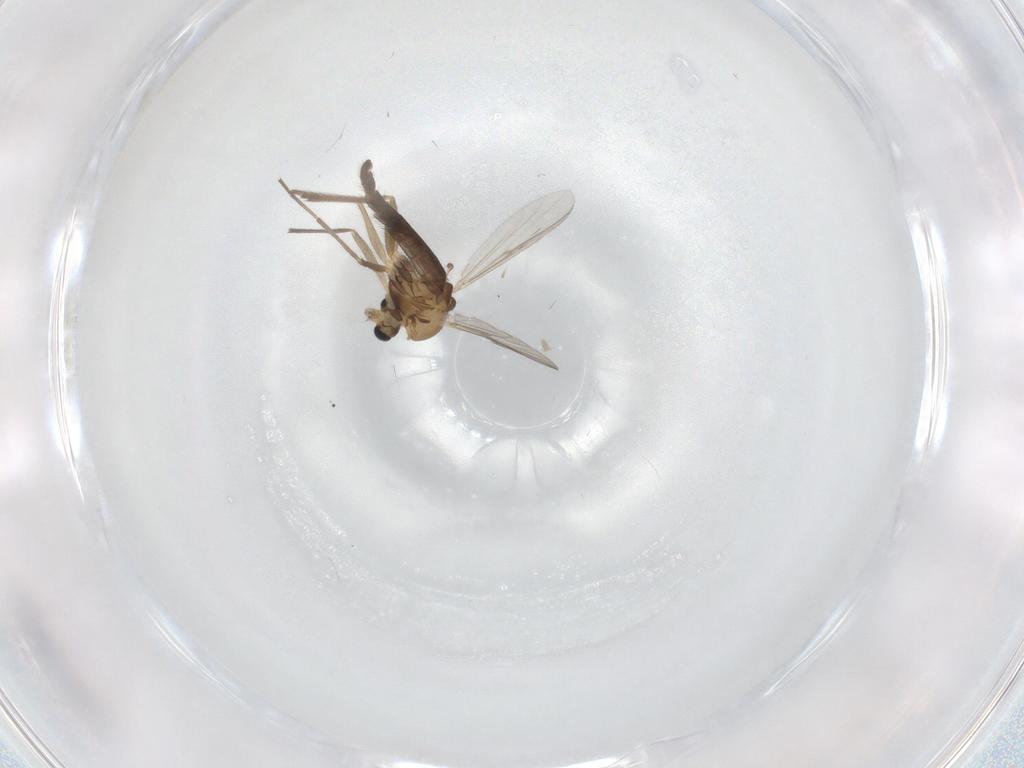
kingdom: Animalia
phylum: Arthropoda
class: Insecta
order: Diptera
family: Chironomidae
